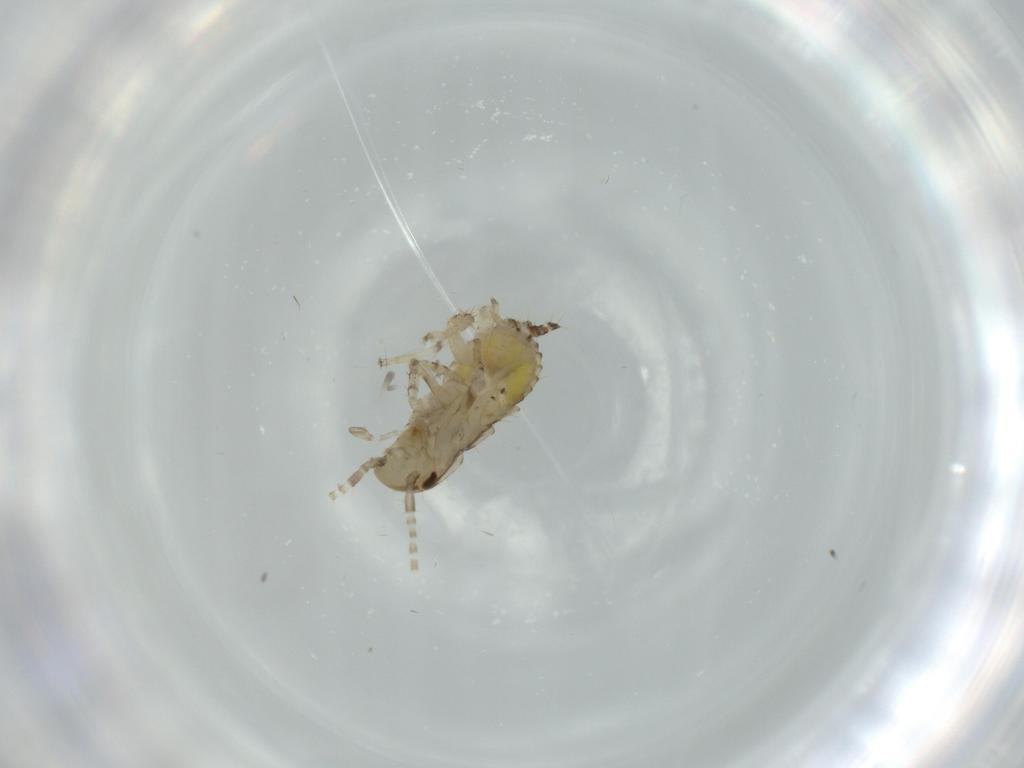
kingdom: Animalia
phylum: Arthropoda
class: Insecta
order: Blattodea
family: Ectobiidae
